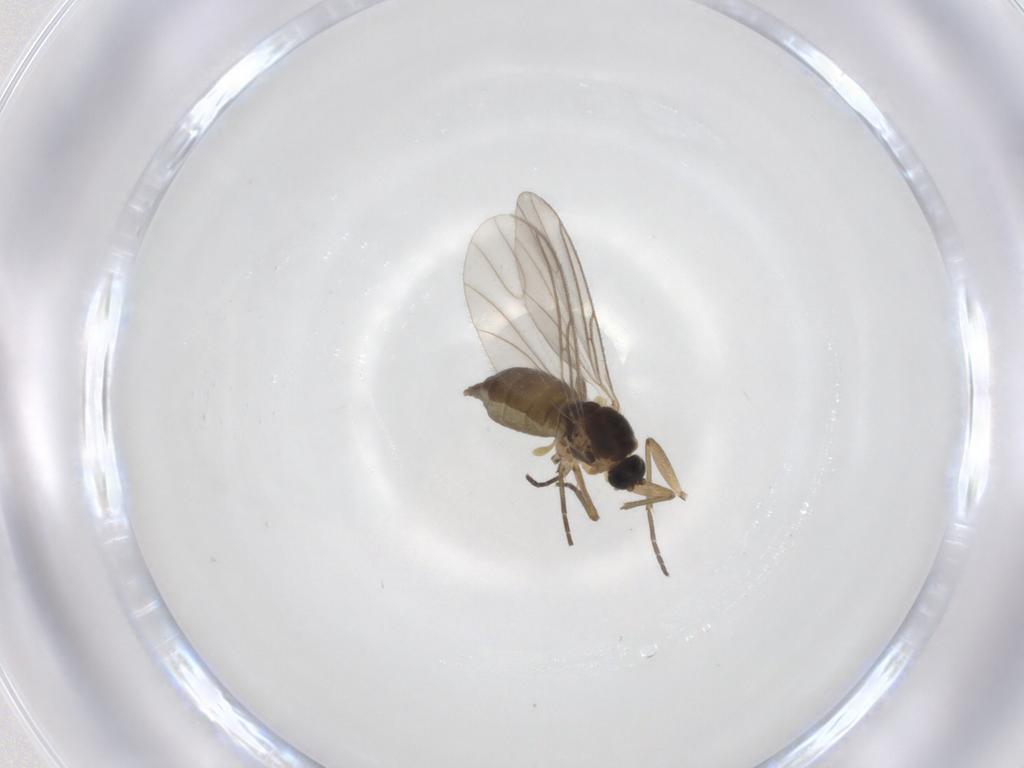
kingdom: Animalia
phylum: Arthropoda
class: Insecta
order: Diptera
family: Sciaridae
